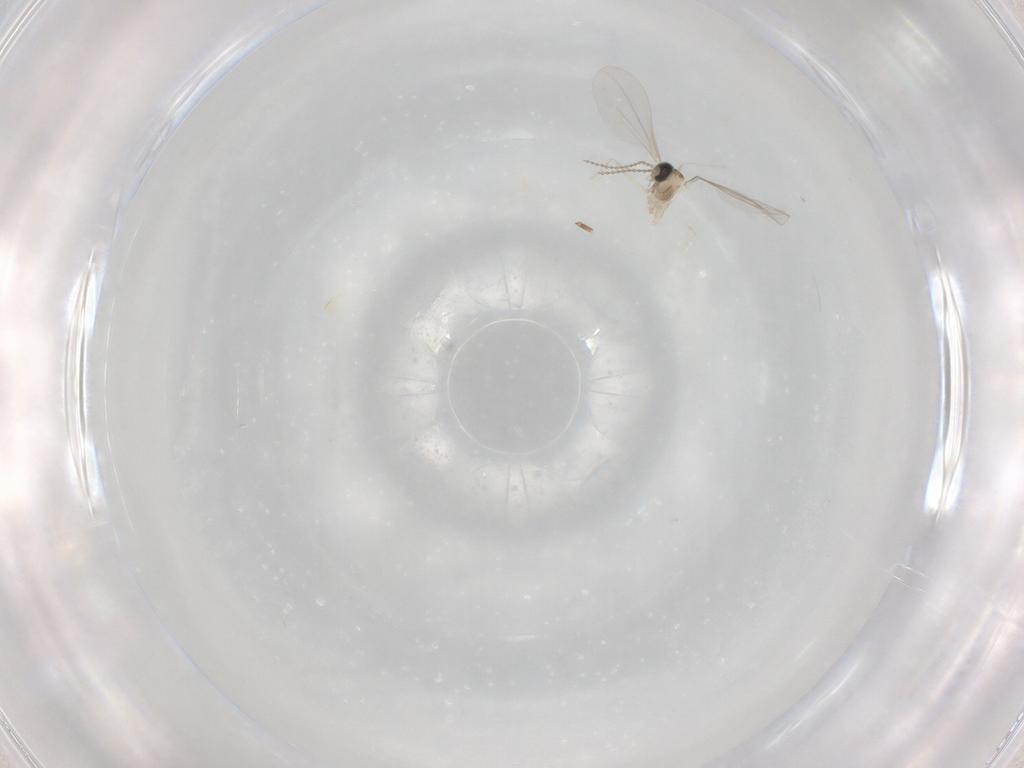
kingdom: Animalia
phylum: Arthropoda
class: Insecta
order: Diptera
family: Cecidomyiidae
